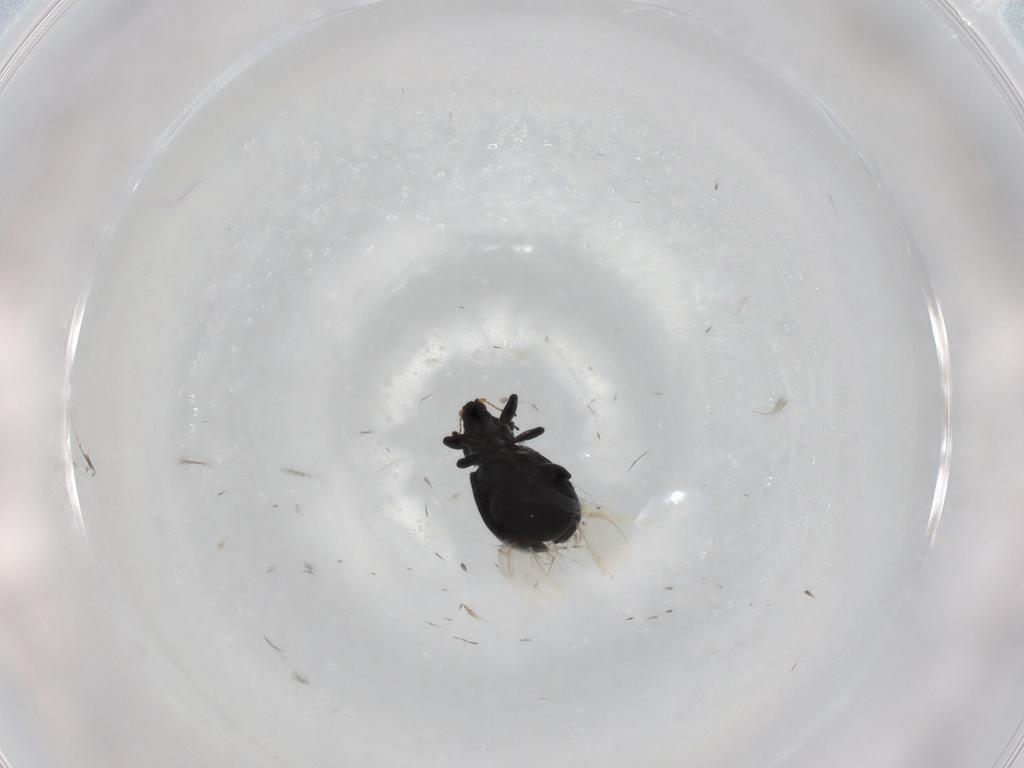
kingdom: Animalia
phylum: Arthropoda
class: Insecta
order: Coleoptera
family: Curculionidae
